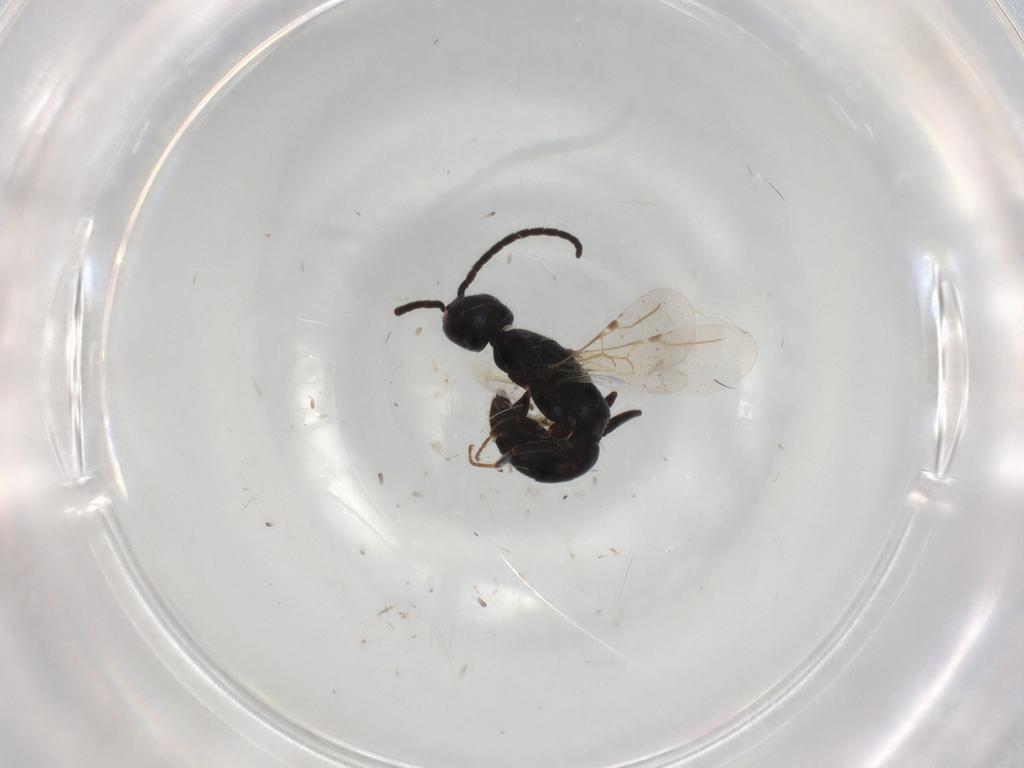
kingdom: Animalia
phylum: Arthropoda
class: Insecta
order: Hymenoptera
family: Bethylidae
